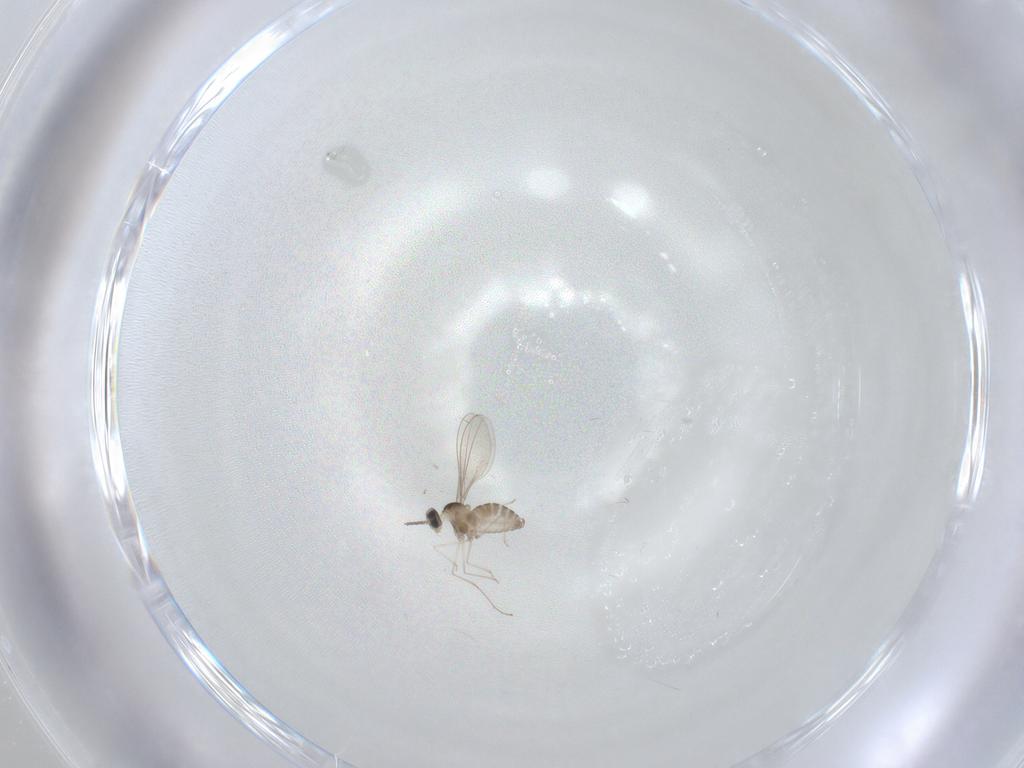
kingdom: Animalia
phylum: Arthropoda
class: Insecta
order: Diptera
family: Cecidomyiidae
